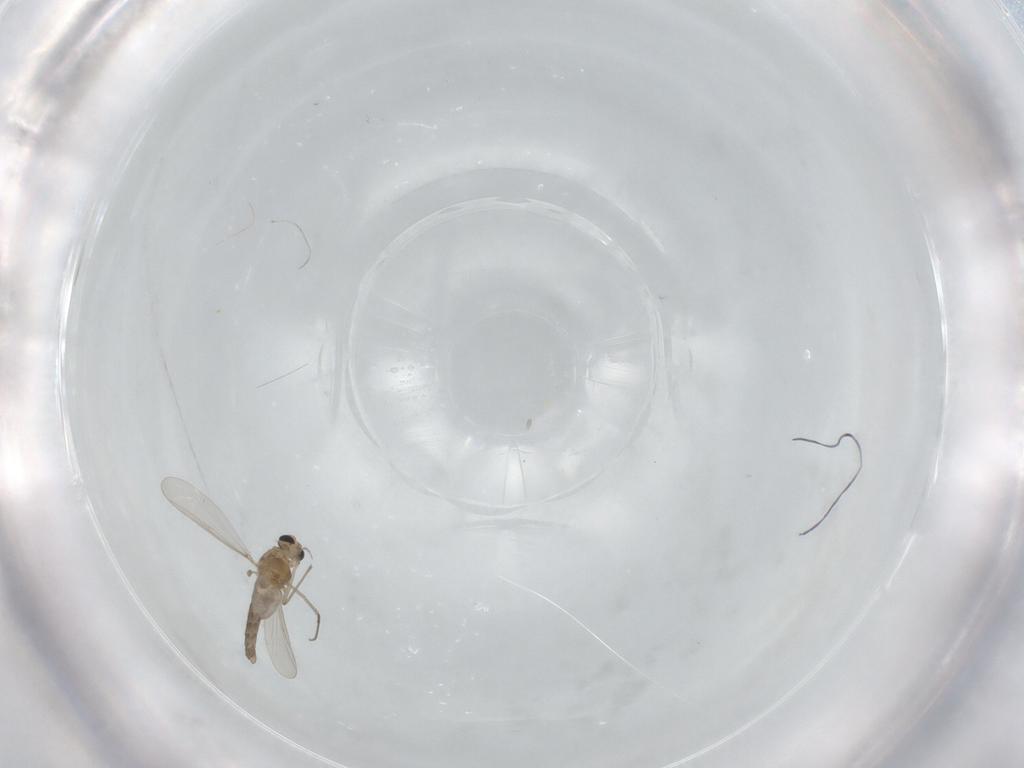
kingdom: Animalia
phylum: Arthropoda
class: Insecta
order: Diptera
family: Chironomidae
